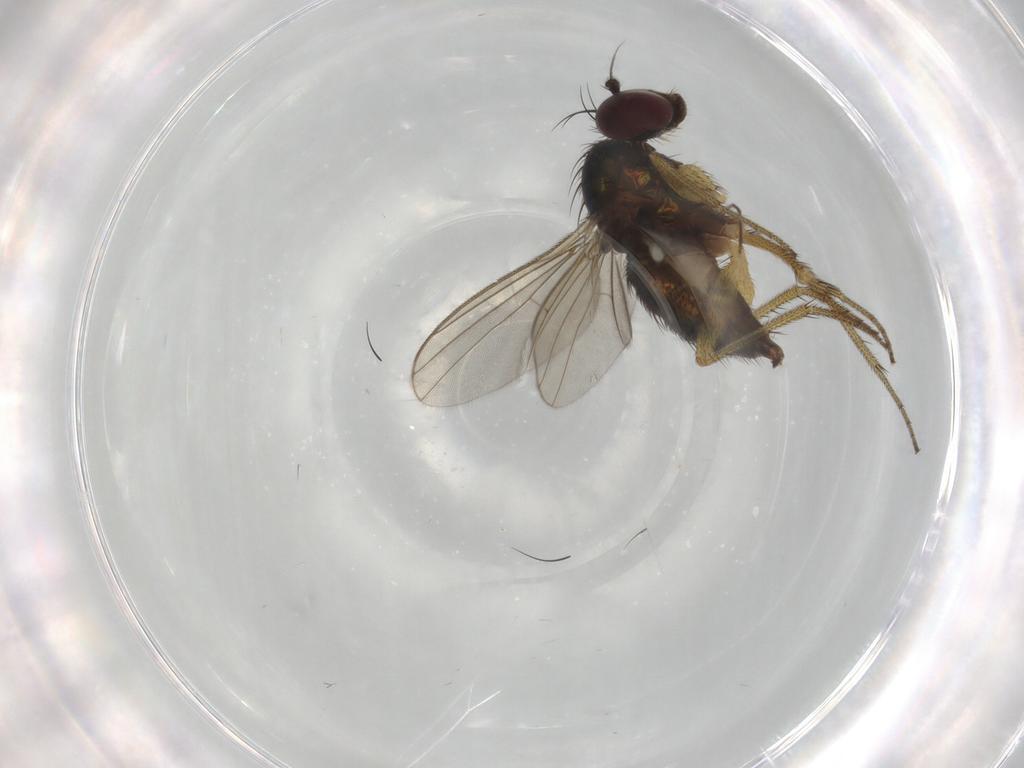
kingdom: Animalia
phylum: Arthropoda
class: Insecta
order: Diptera
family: Chironomidae
